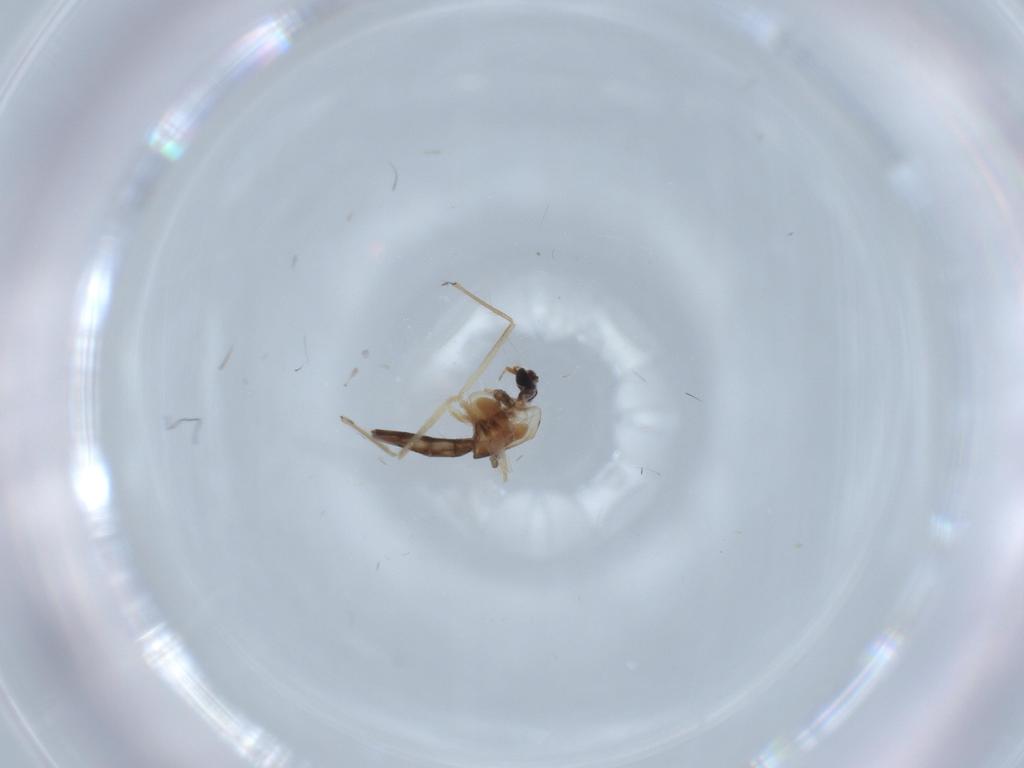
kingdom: Animalia
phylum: Arthropoda
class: Insecta
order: Diptera
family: Chironomidae
